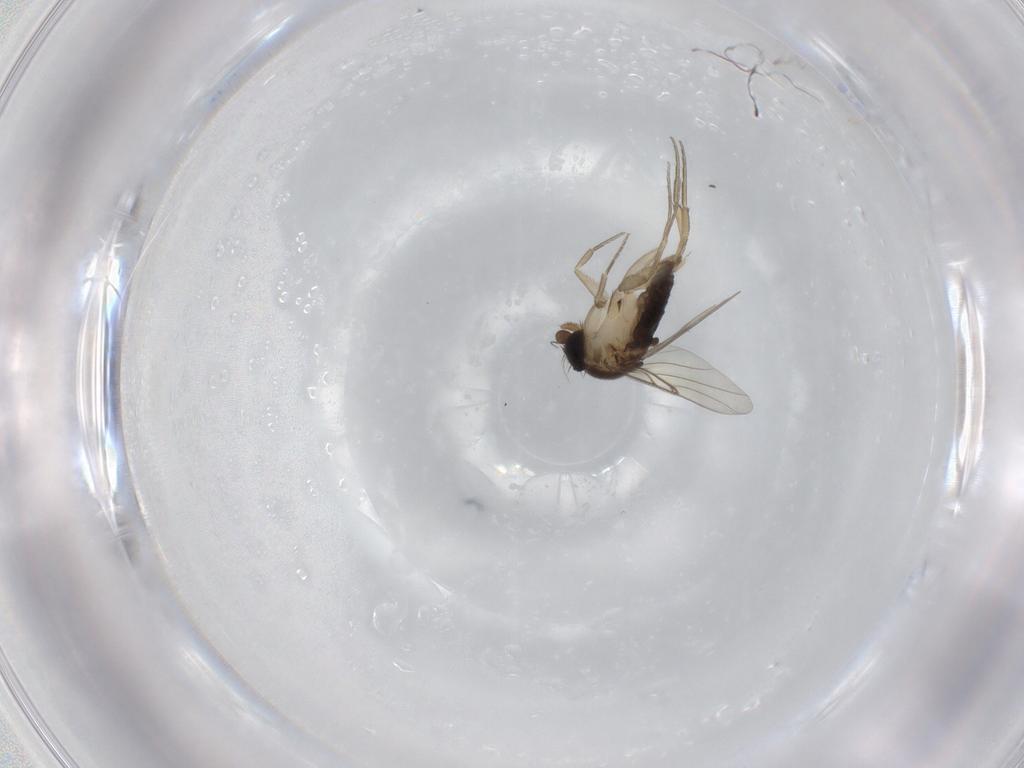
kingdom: Animalia
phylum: Arthropoda
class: Insecta
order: Diptera
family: Phoridae
